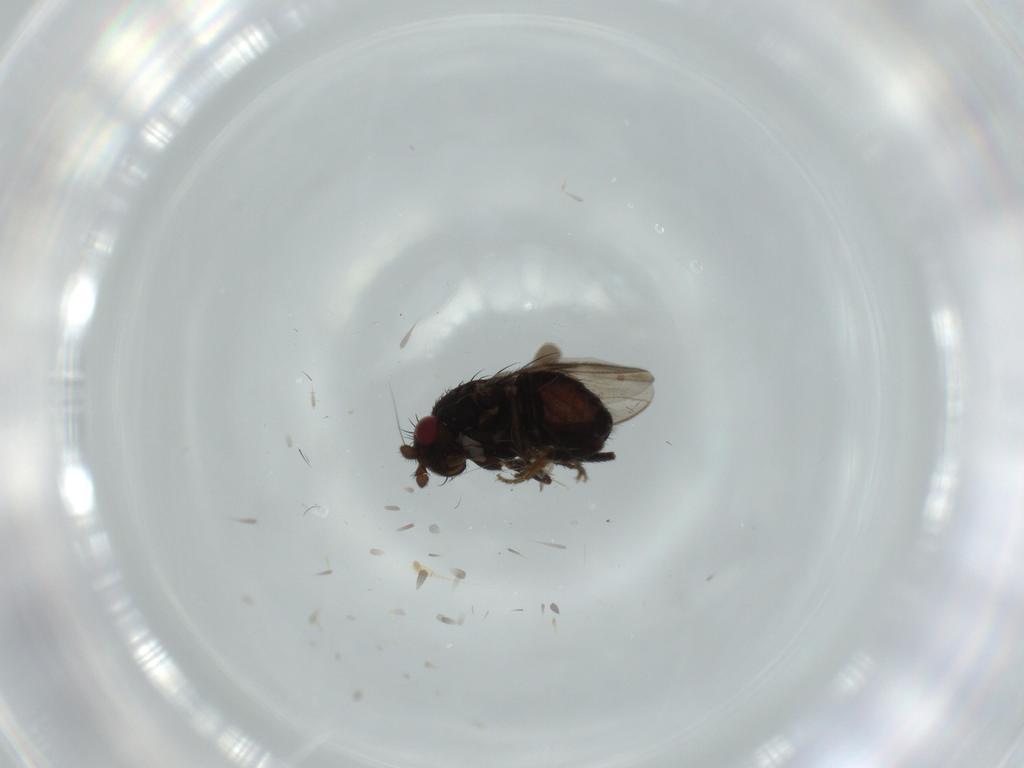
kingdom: Animalia
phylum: Arthropoda
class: Insecta
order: Diptera
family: Sphaeroceridae
